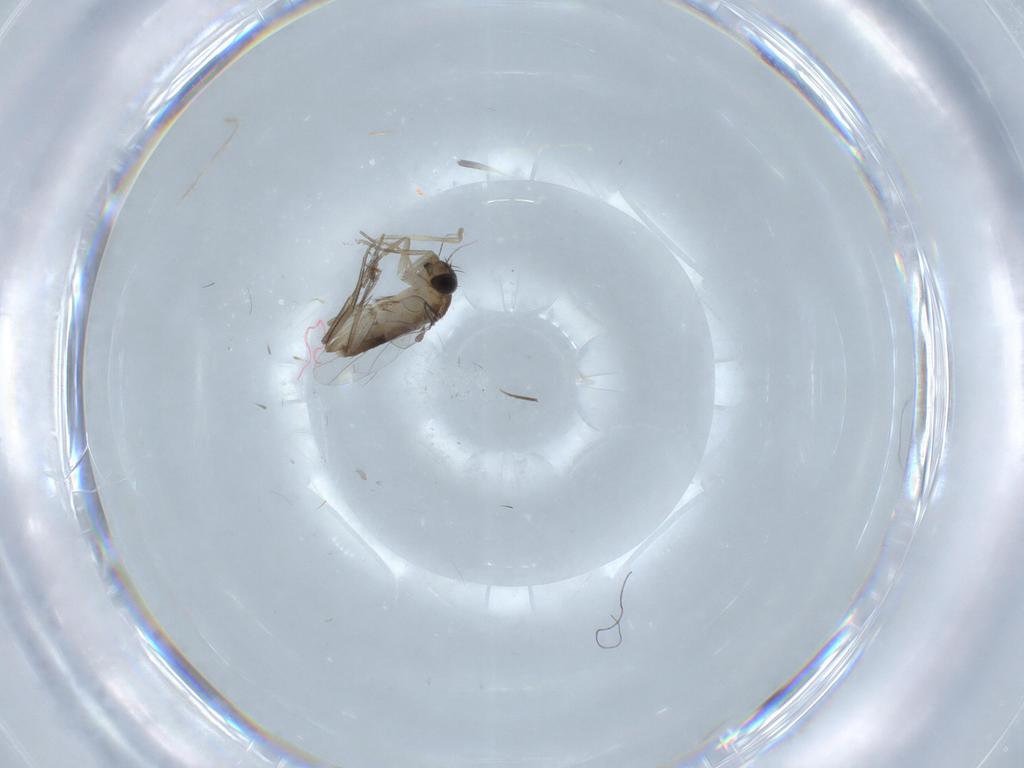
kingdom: Animalia
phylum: Arthropoda
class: Insecta
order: Diptera
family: Phoridae
